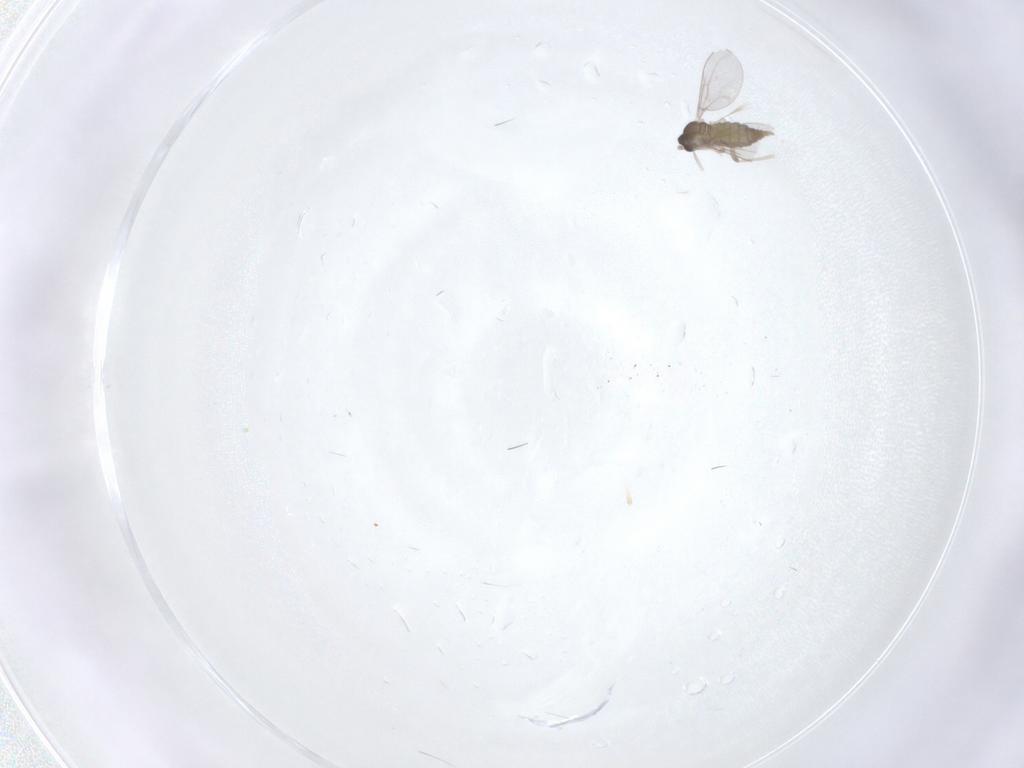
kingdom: Animalia
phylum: Arthropoda
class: Insecta
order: Diptera
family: Cecidomyiidae
